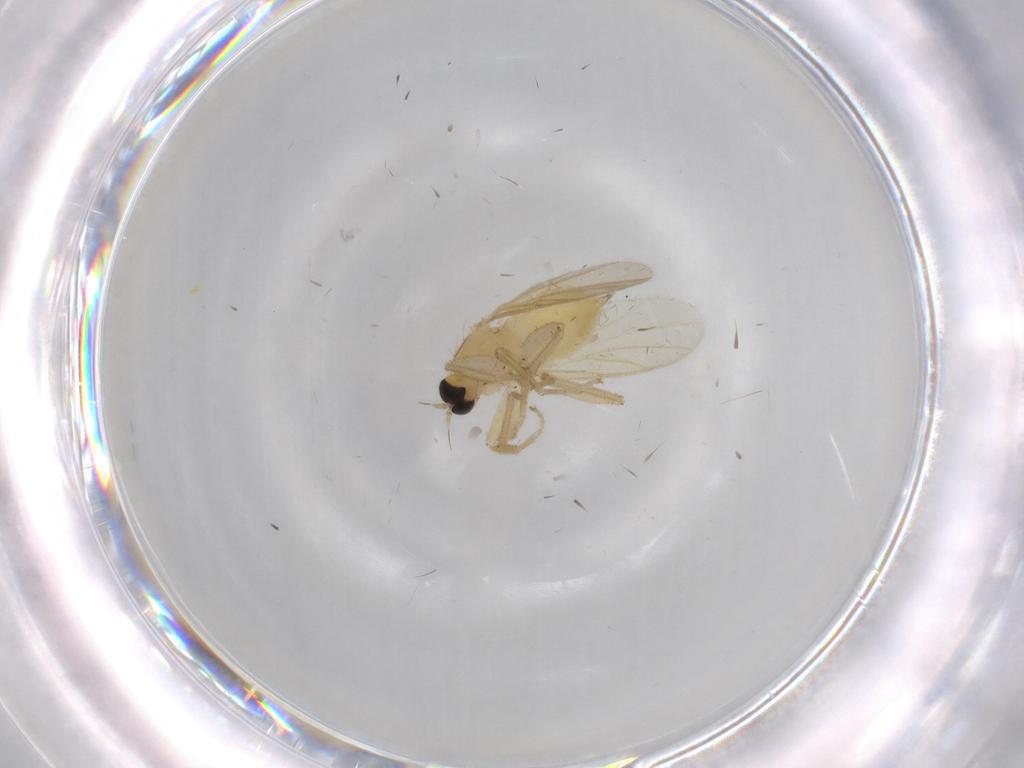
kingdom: Animalia
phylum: Arthropoda
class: Insecta
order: Diptera
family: Hybotidae
